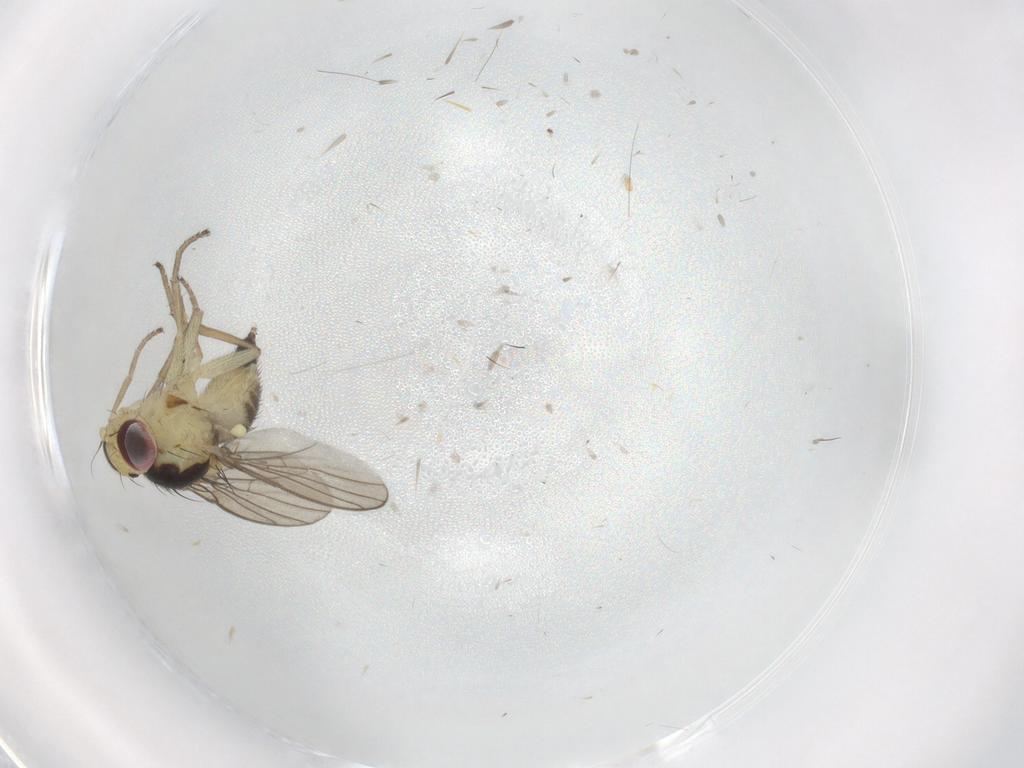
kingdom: Animalia
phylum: Arthropoda
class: Insecta
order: Diptera
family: Agromyzidae
